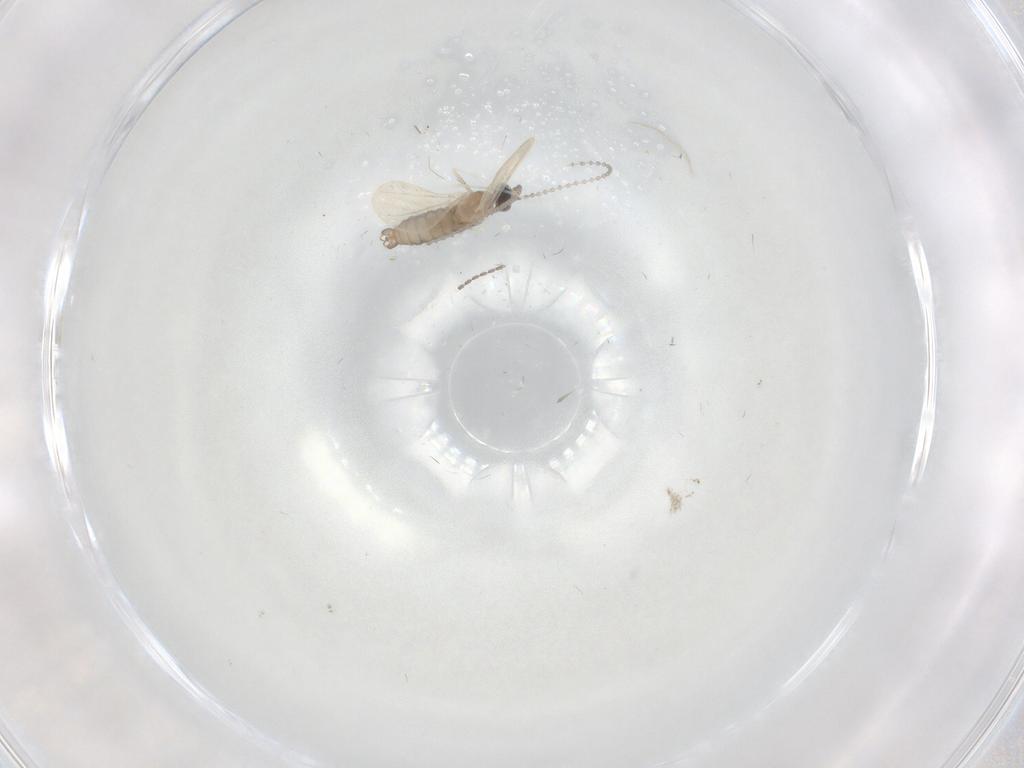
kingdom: Animalia
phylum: Arthropoda
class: Insecta
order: Diptera
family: Cecidomyiidae
